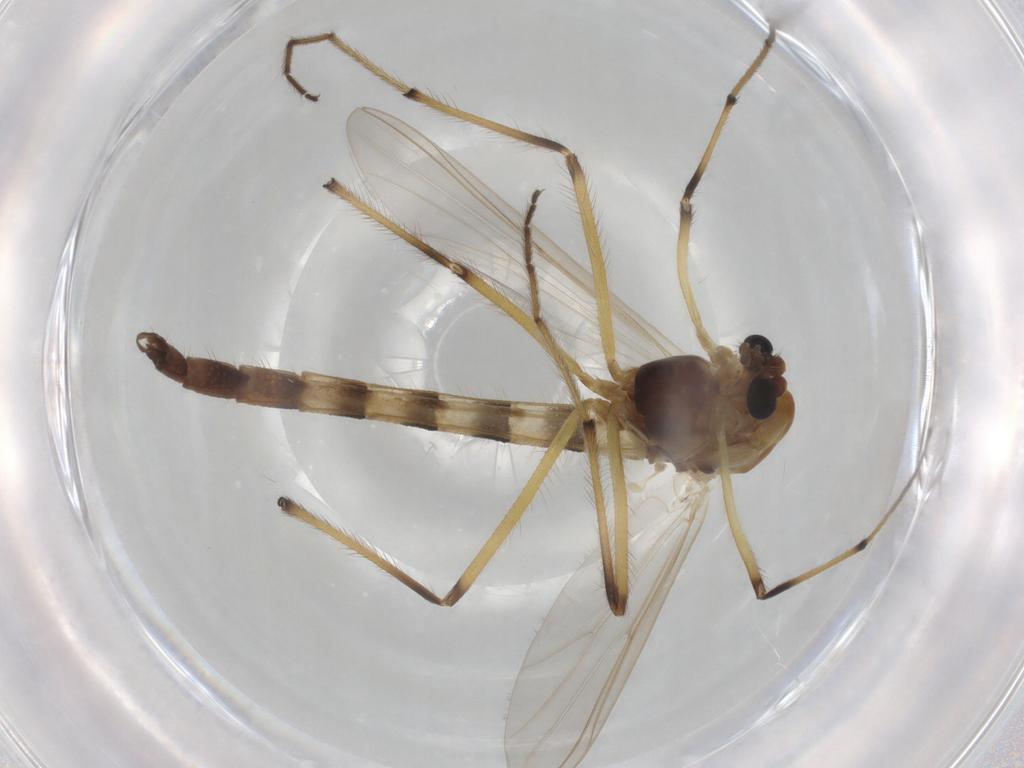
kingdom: Animalia
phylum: Arthropoda
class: Insecta
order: Diptera
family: Chironomidae
